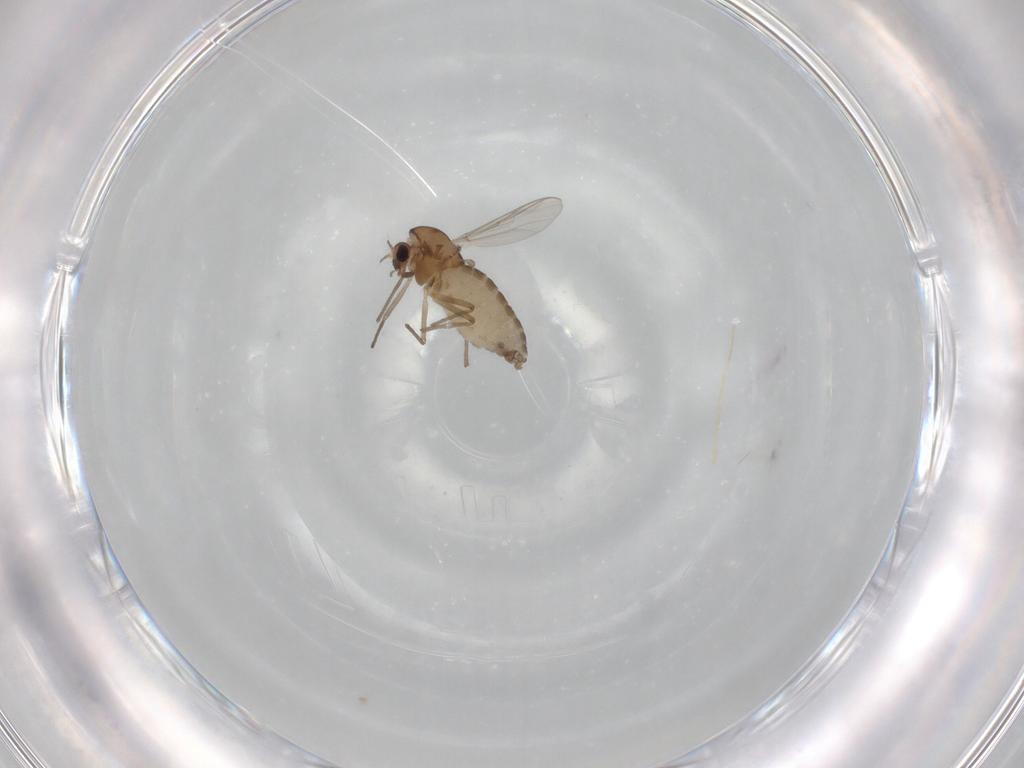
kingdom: Animalia
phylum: Arthropoda
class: Insecta
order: Diptera
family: Chironomidae
